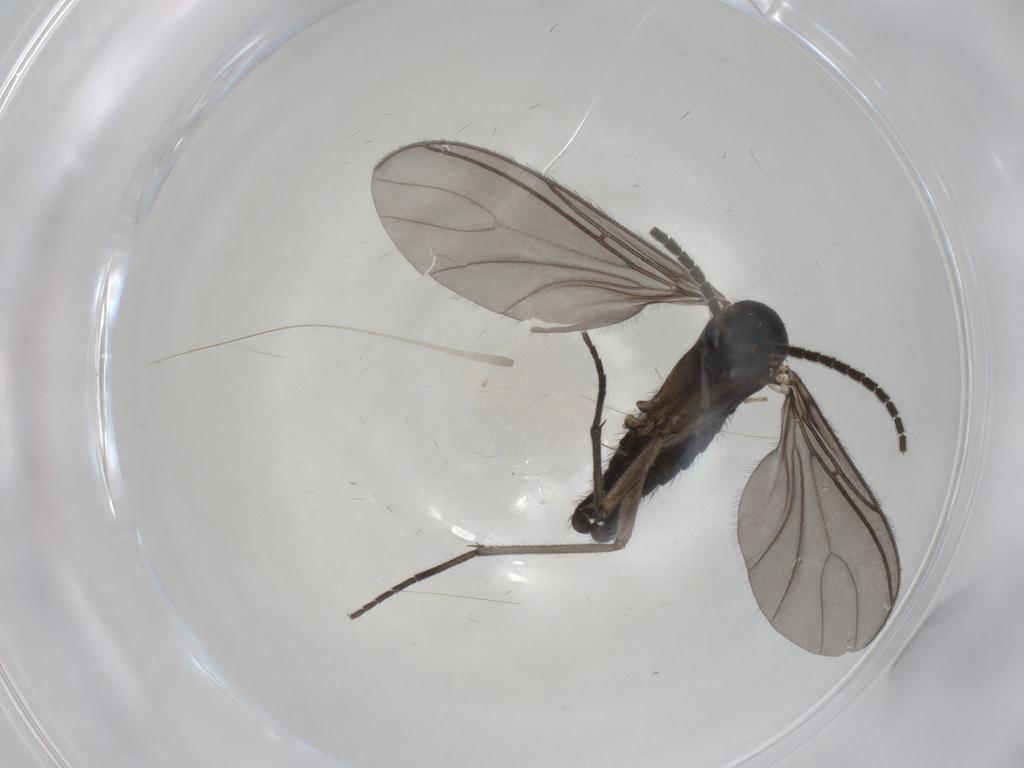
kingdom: Animalia
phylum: Arthropoda
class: Insecta
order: Diptera
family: Sciaridae
